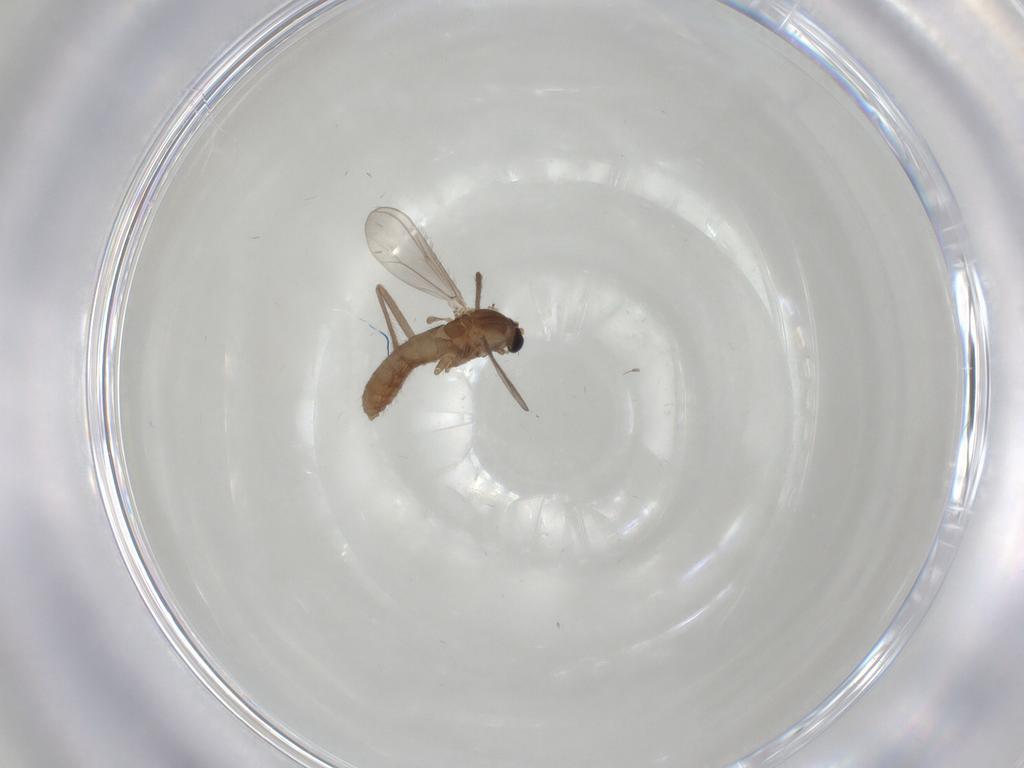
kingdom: Animalia
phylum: Arthropoda
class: Insecta
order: Diptera
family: Chironomidae
